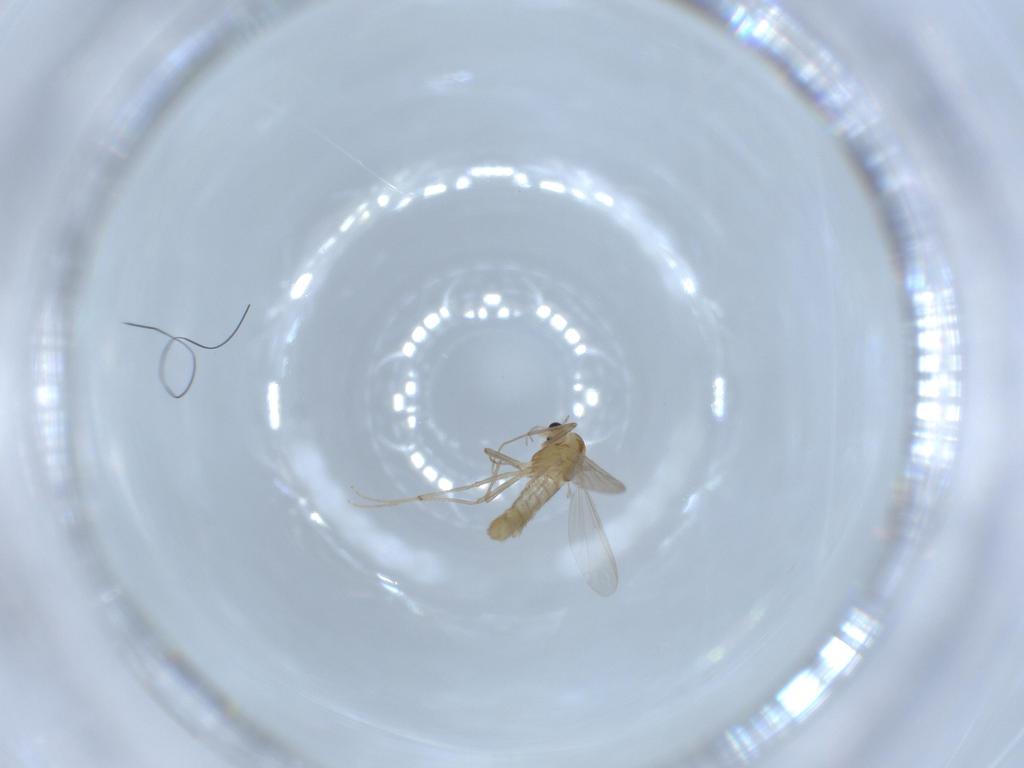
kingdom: Animalia
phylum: Arthropoda
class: Insecta
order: Diptera
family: Chironomidae
